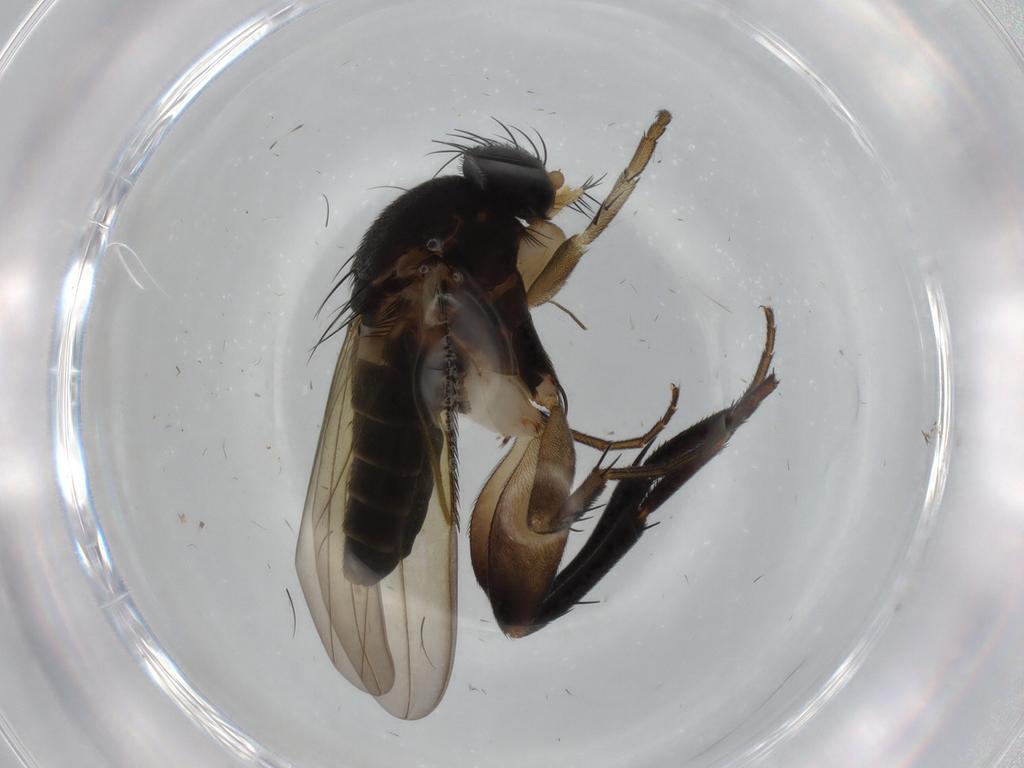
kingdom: Animalia
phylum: Arthropoda
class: Insecta
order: Diptera
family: Phoridae
